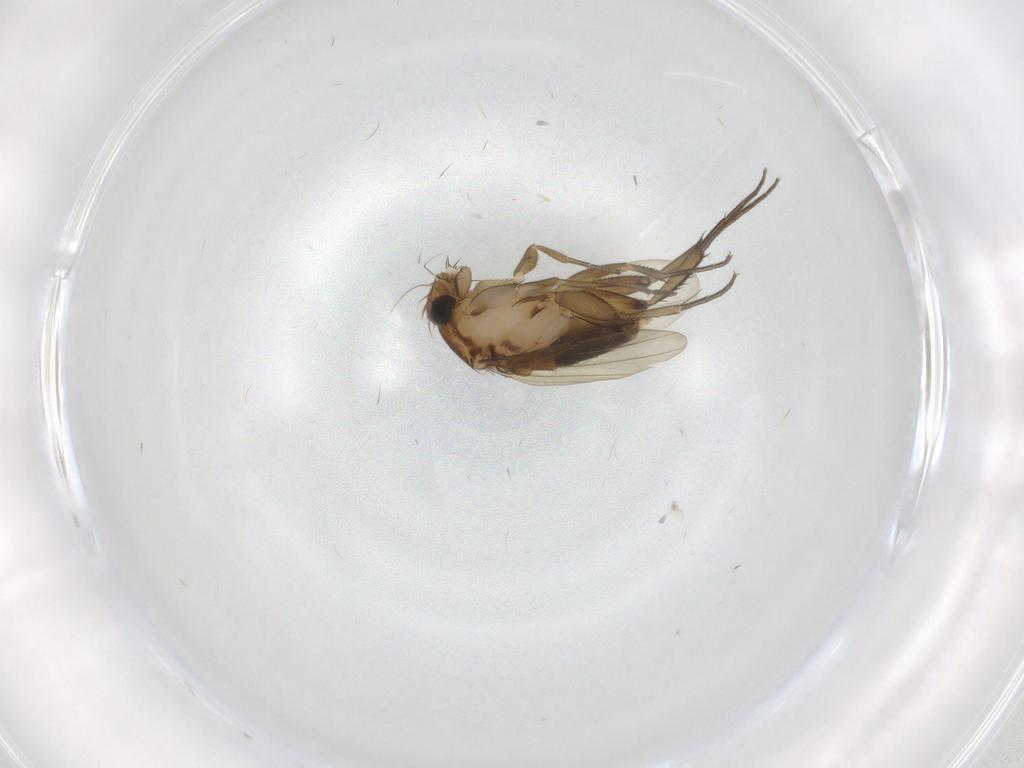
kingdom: Animalia
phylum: Arthropoda
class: Insecta
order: Diptera
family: Phoridae
